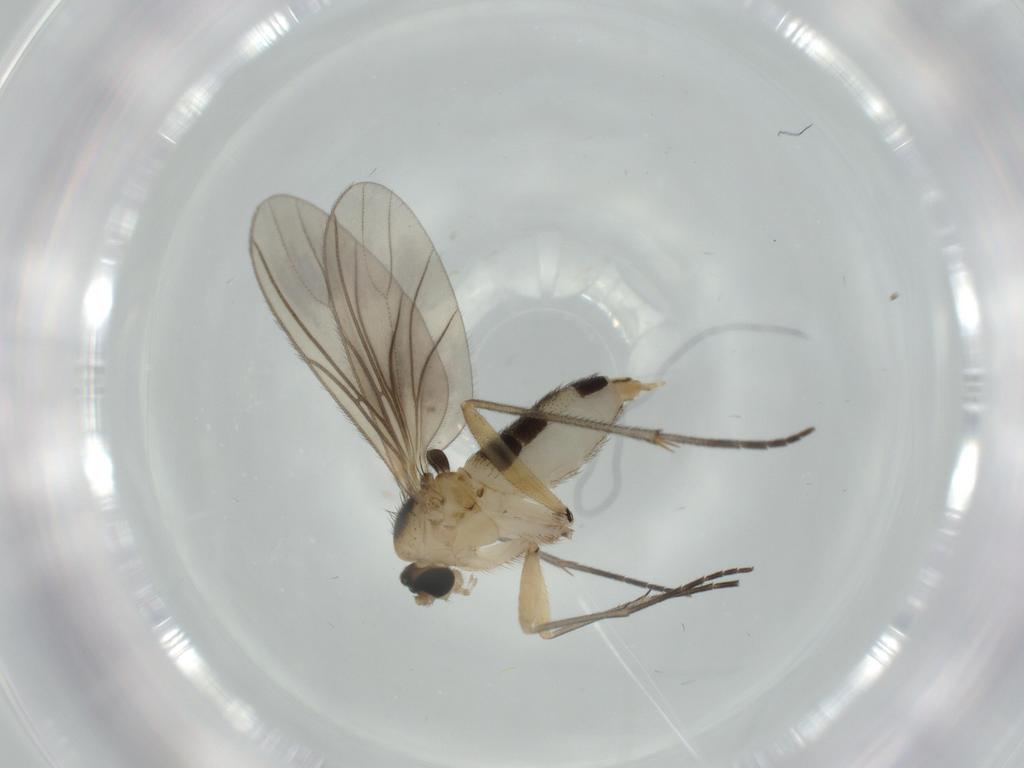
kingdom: Animalia
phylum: Arthropoda
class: Insecta
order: Diptera
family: Sciaridae
